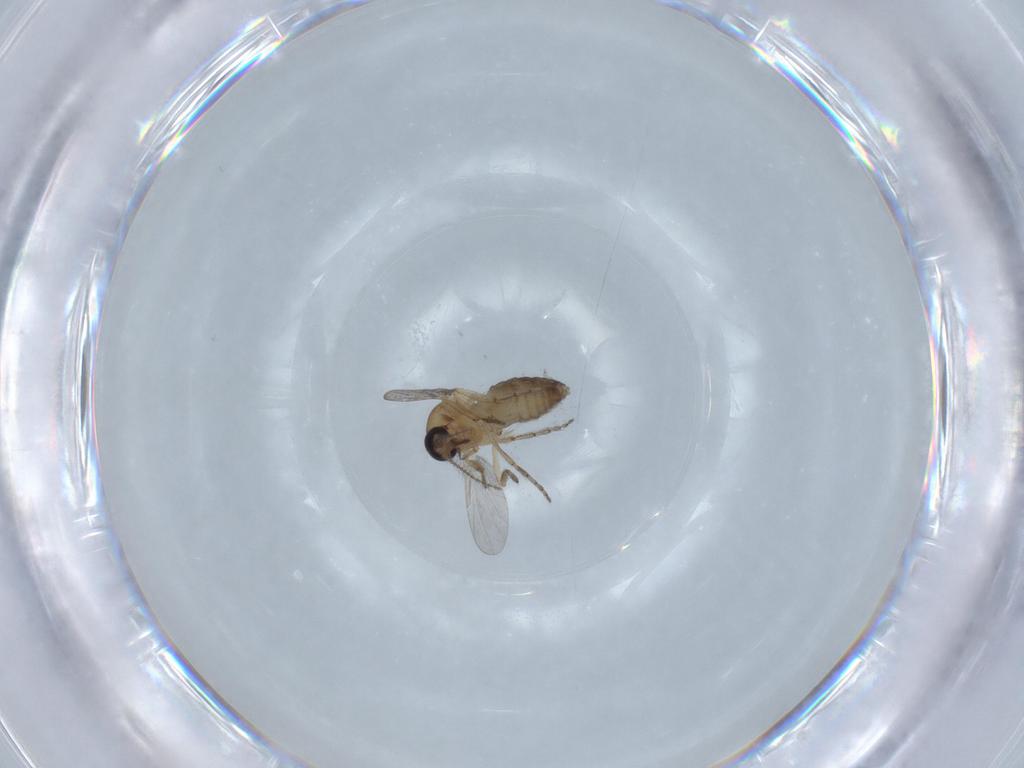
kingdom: Animalia
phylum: Arthropoda
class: Insecta
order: Diptera
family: Ceratopogonidae
